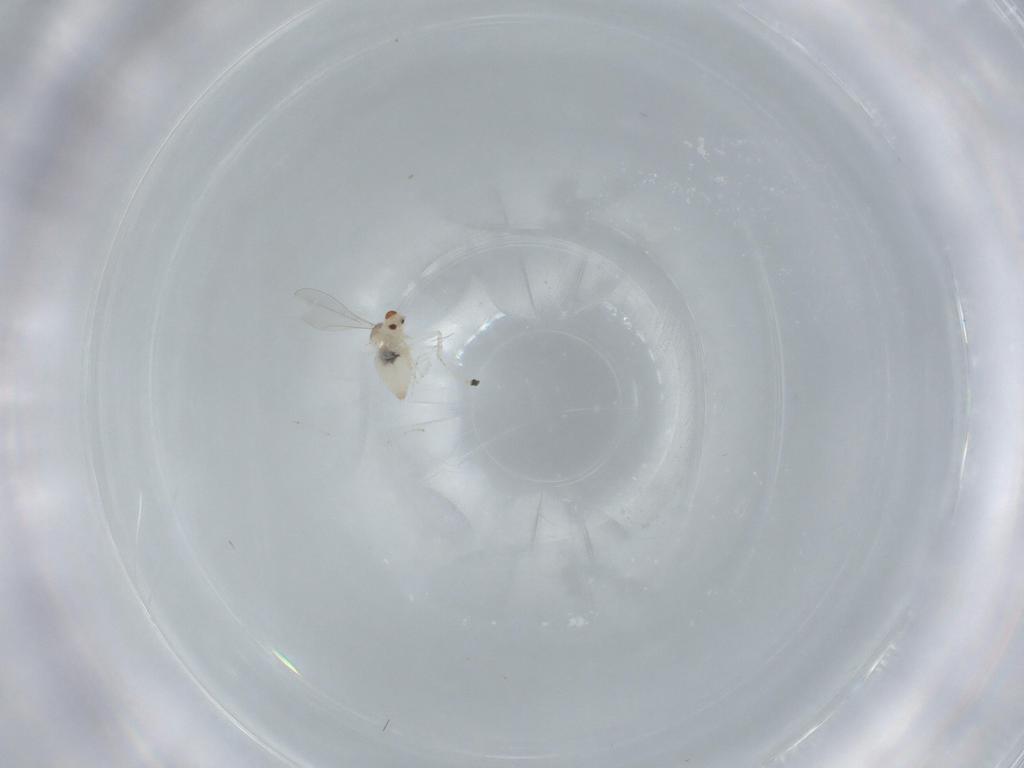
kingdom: Animalia
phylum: Arthropoda
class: Insecta
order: Diptera
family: Cecidomyiidae
